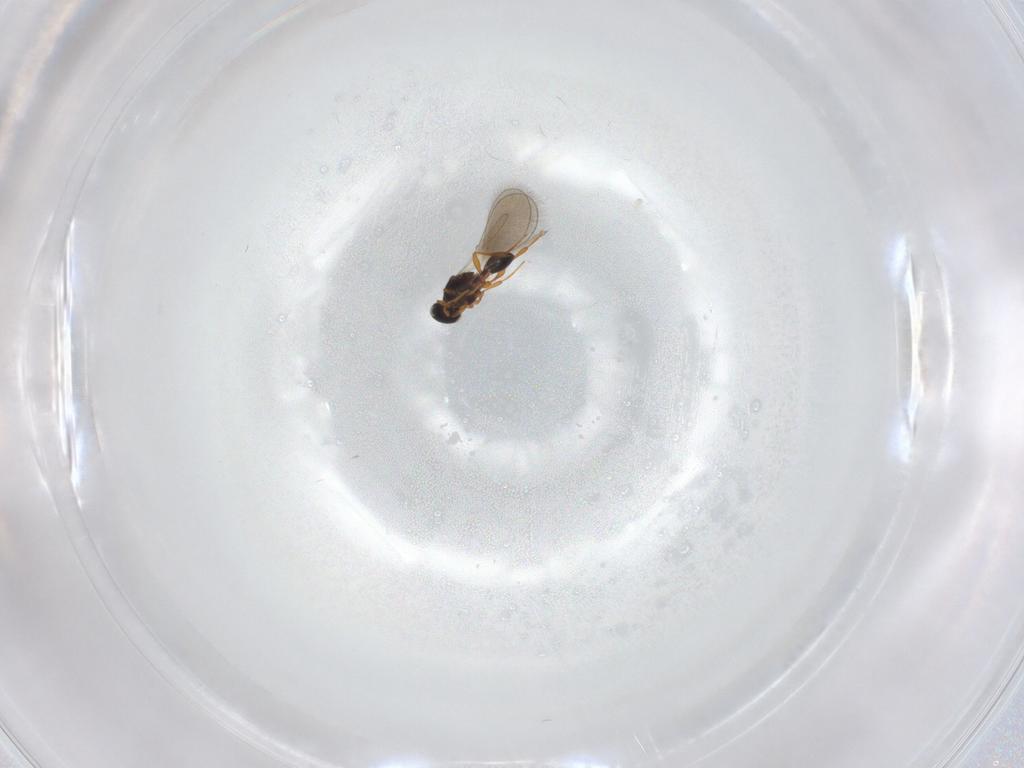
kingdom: Animalia
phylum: Arthropoda
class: Insecta
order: Hymenoptera
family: Platygastridae
